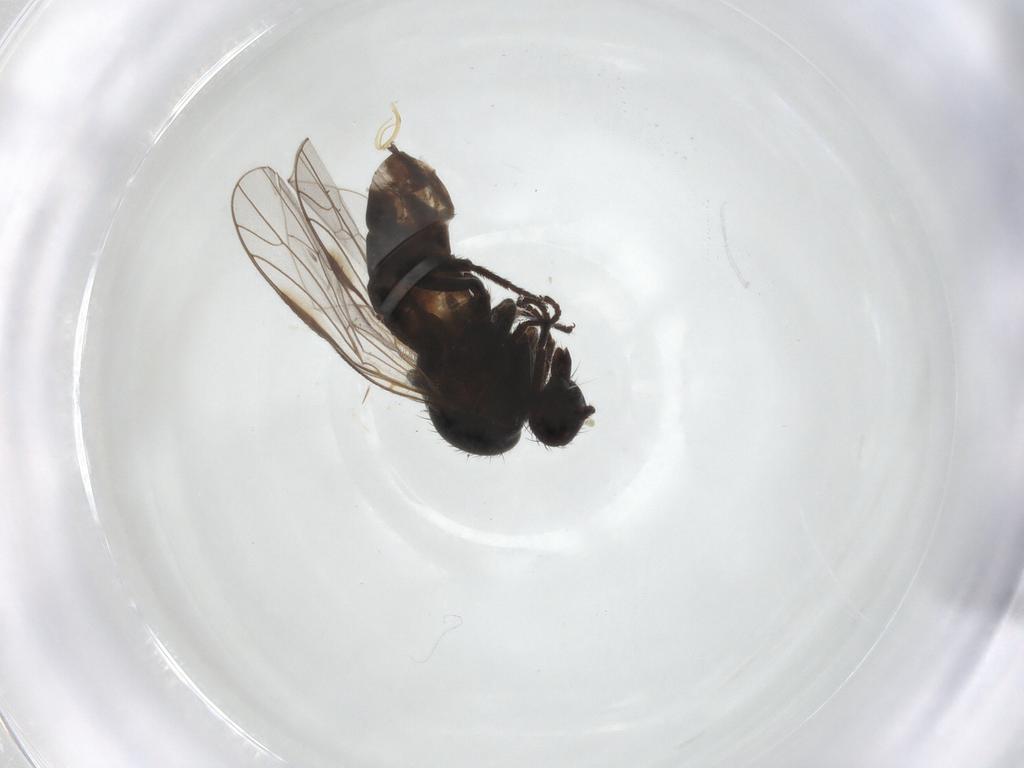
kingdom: Animalia
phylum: Arthropoda
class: Insecta
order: Diptera
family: Empididae
